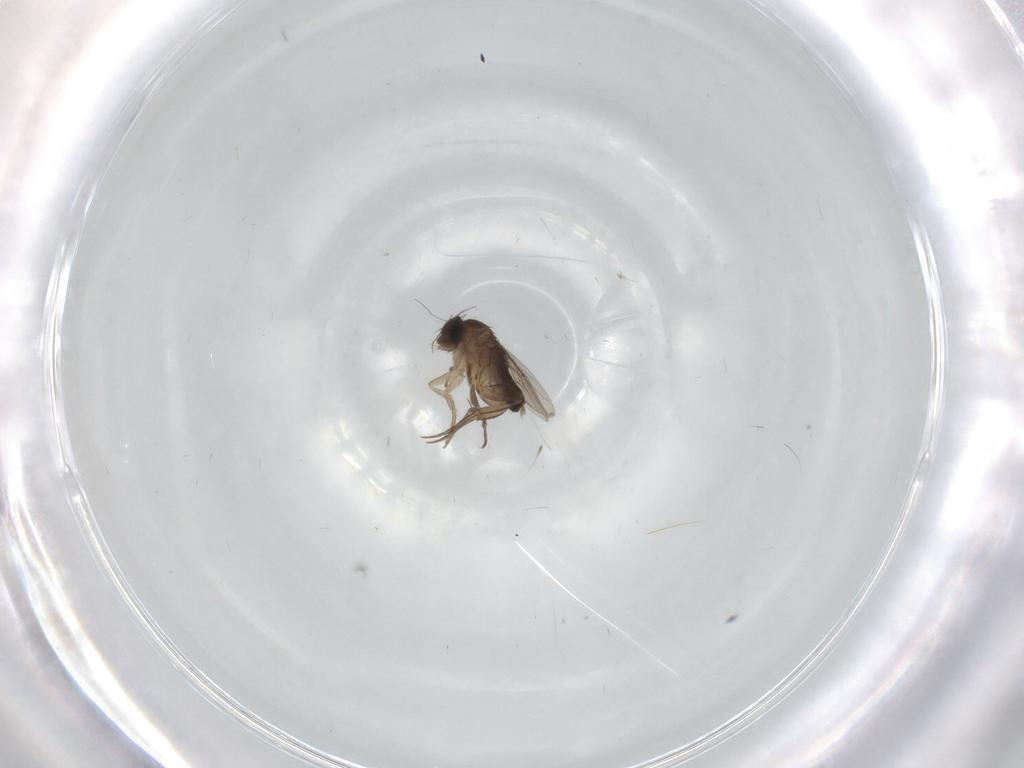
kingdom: Animalia
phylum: Arthropoda
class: Insecta
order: Diptera
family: Phoridae
